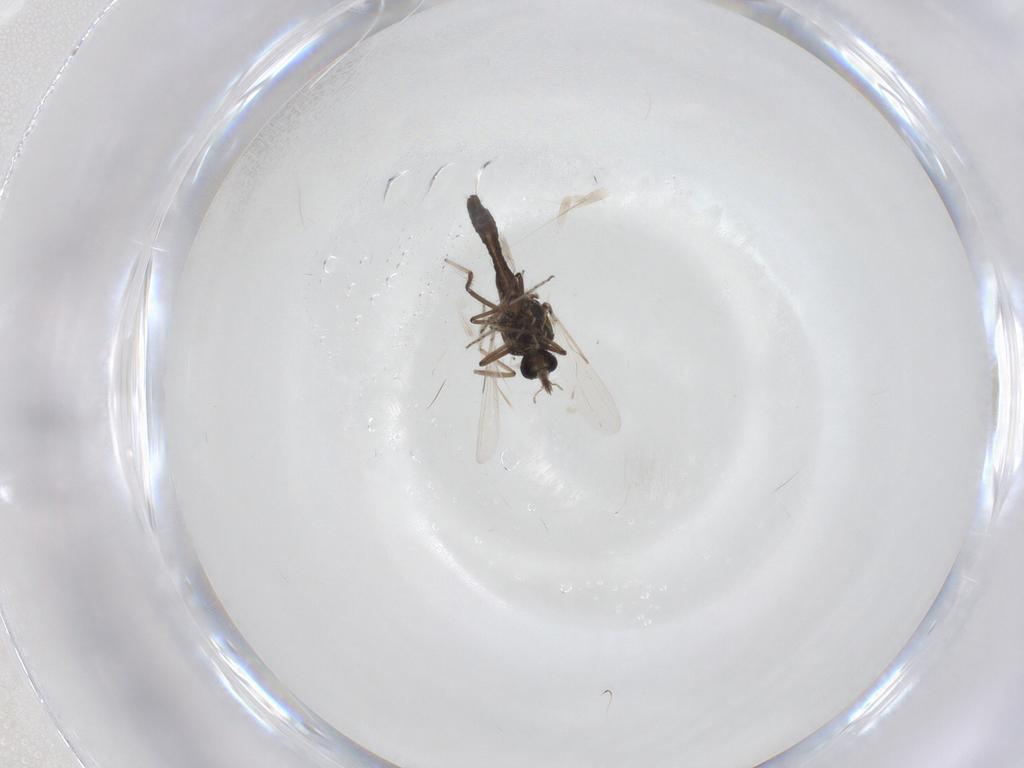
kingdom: Animalia
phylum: Arthropoda
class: Insecta
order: Diptera
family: Ceratopogonidae
